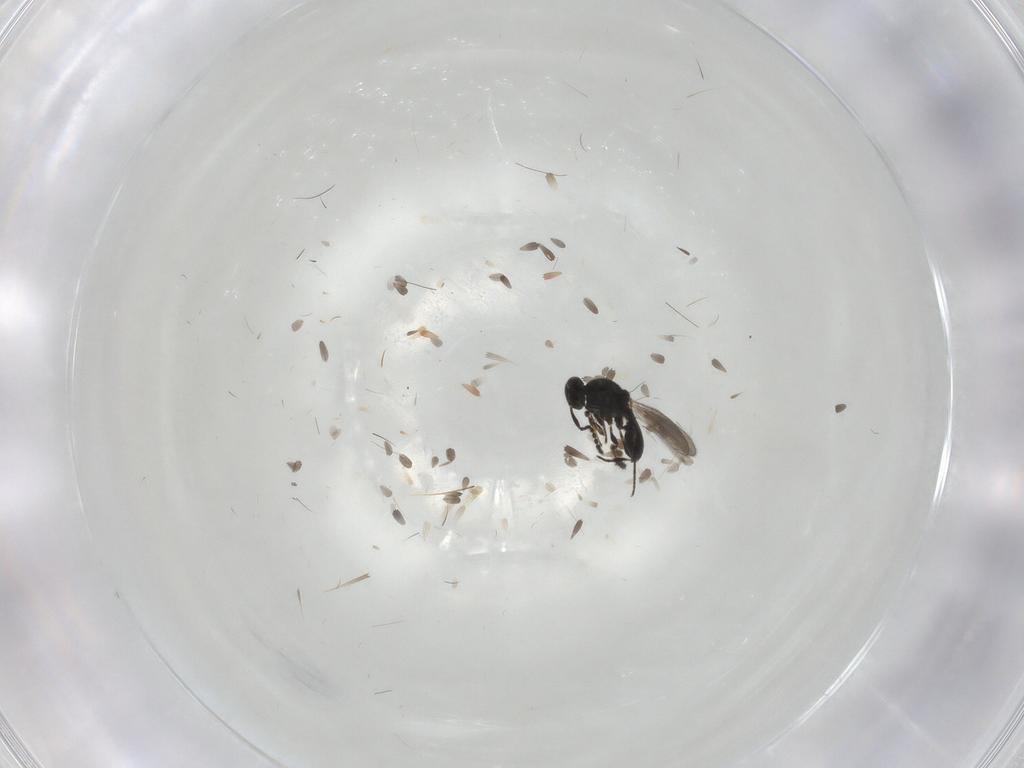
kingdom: Animalia
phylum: Arthropoda
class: Insecta
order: Hymenoptera
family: Platygastridae
